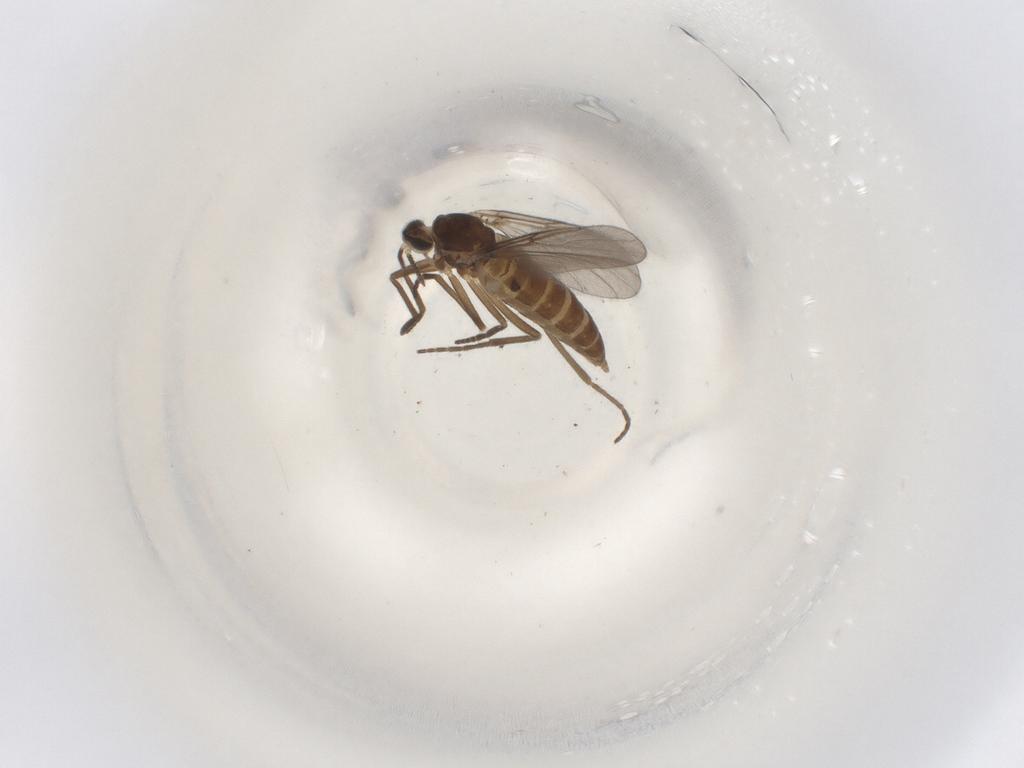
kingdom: Animalia
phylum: Arthropoda
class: Insecta
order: Diptera
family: Cecidomyiidae
